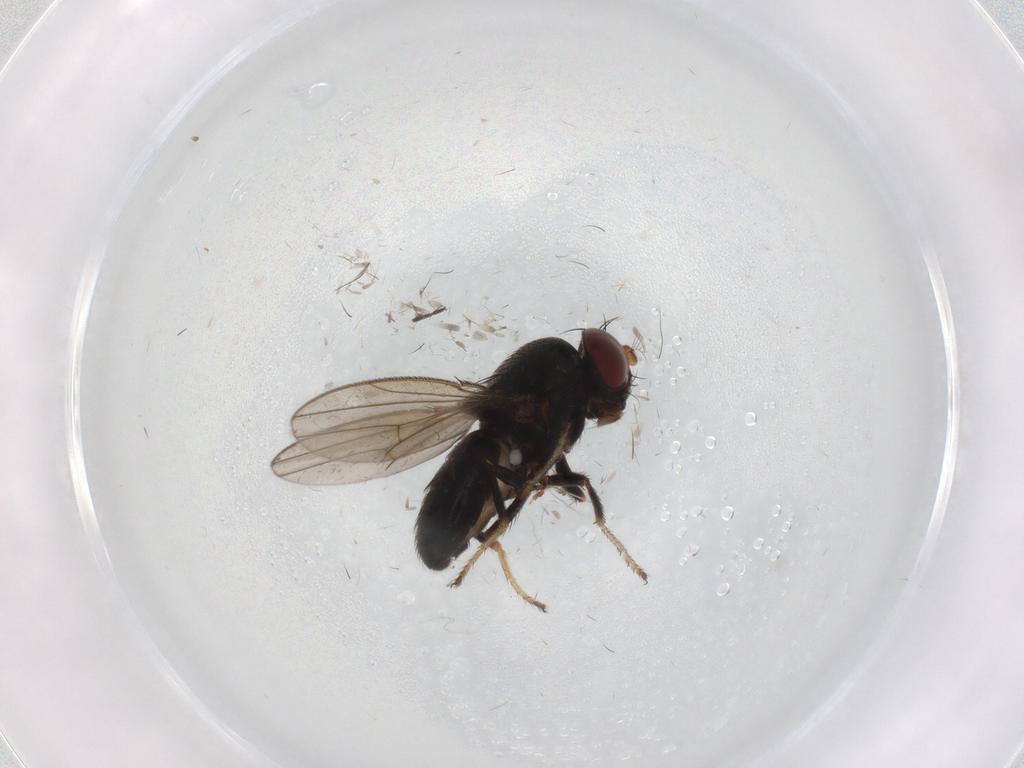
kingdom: Animalia
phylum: Arthropoda
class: Insecta
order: Diptera
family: Ephydridae
